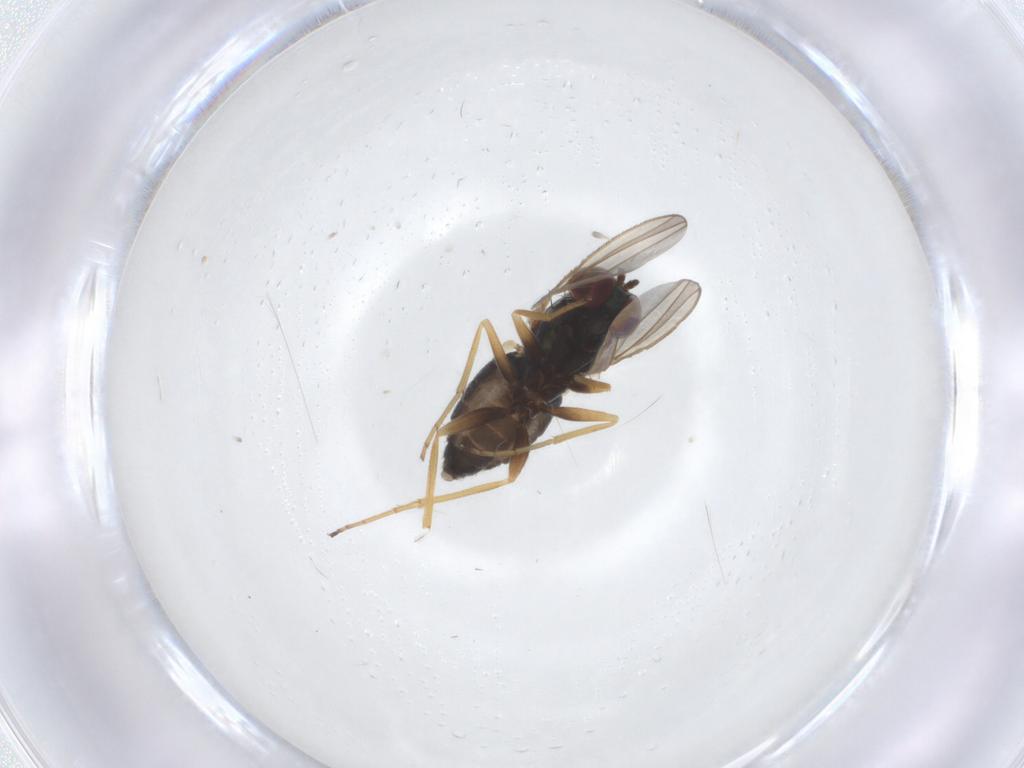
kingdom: Animalia
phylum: Arthropoda
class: Insecta
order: Diptera
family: Dolichopodidae
